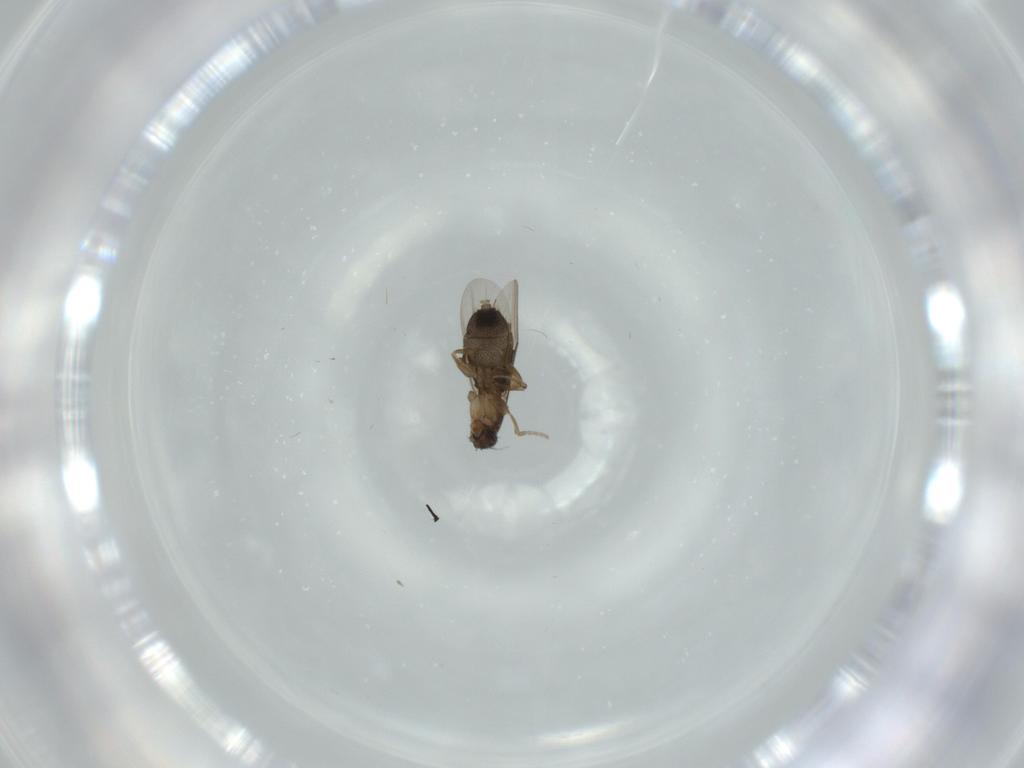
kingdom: Animalia
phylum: Arthropoda
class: Insecta
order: Diptera
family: Phoridae
